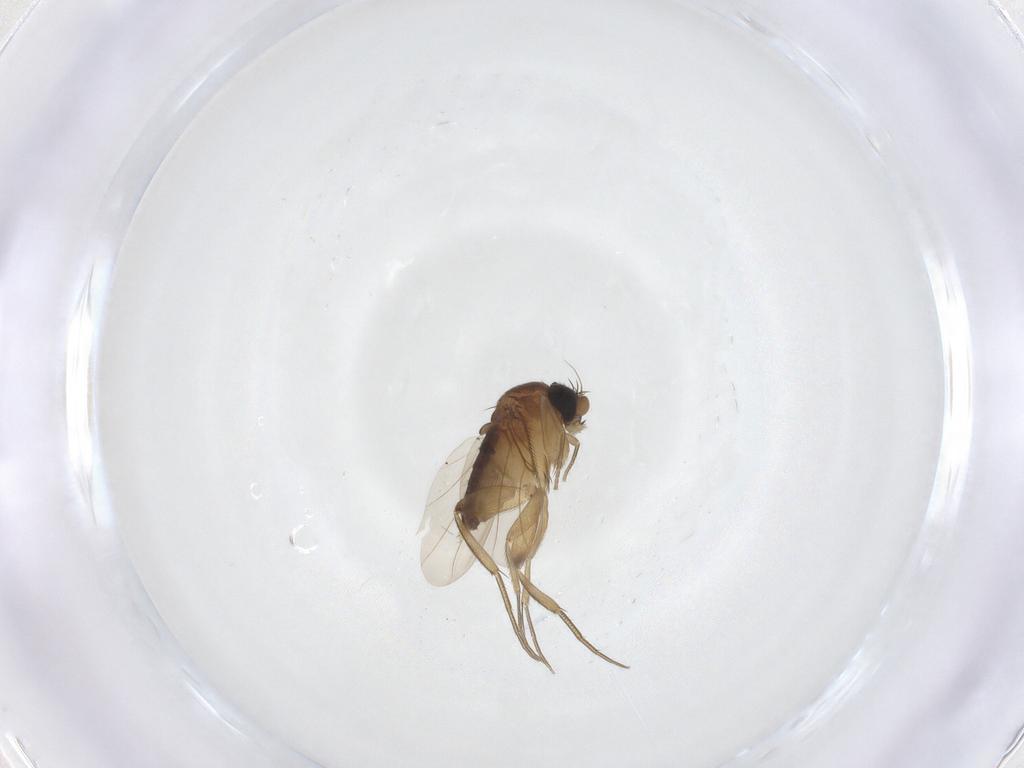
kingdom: Animalia
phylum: Arthropoda
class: Insecta
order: Diptera
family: Phoridae
